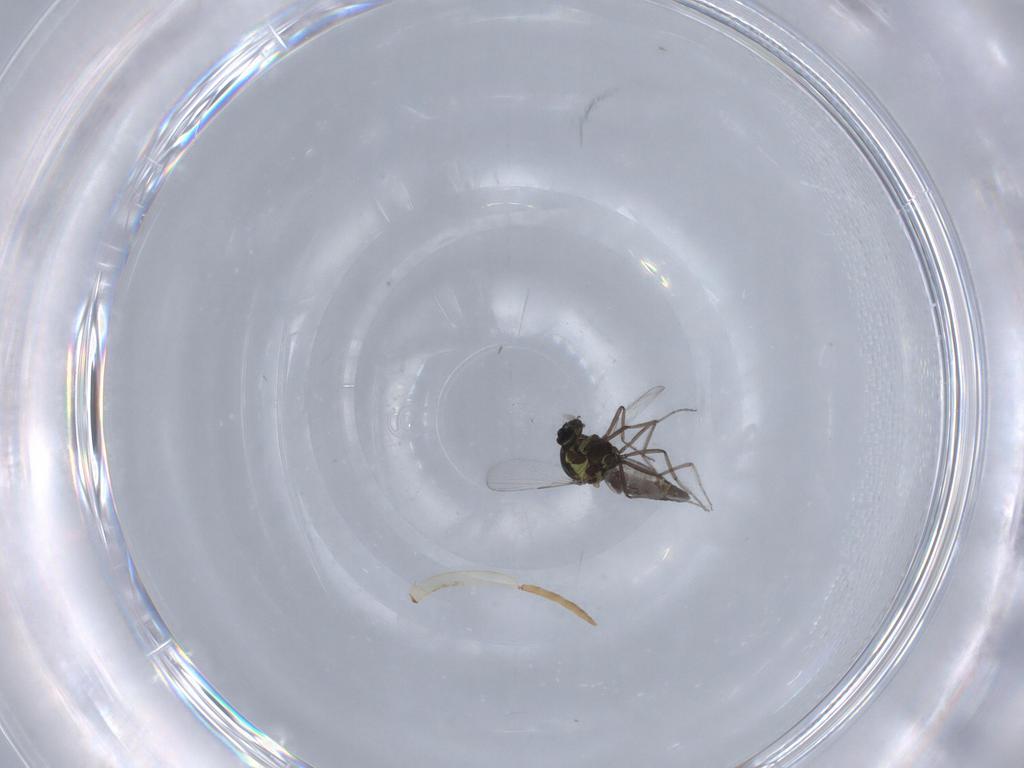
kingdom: Animalia
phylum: Arthropoda
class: Insecta
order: Diptera
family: Ceratopogonidae
